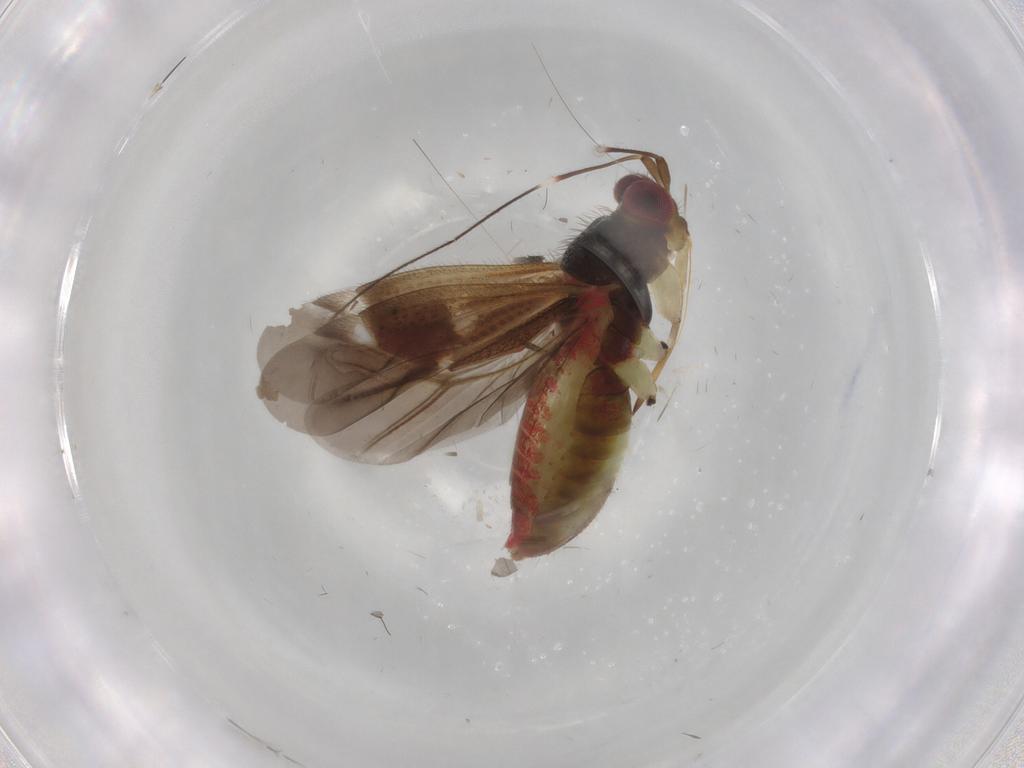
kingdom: Animalia
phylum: Arthropoda
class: Insecta
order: Hemiptera
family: Miridae
